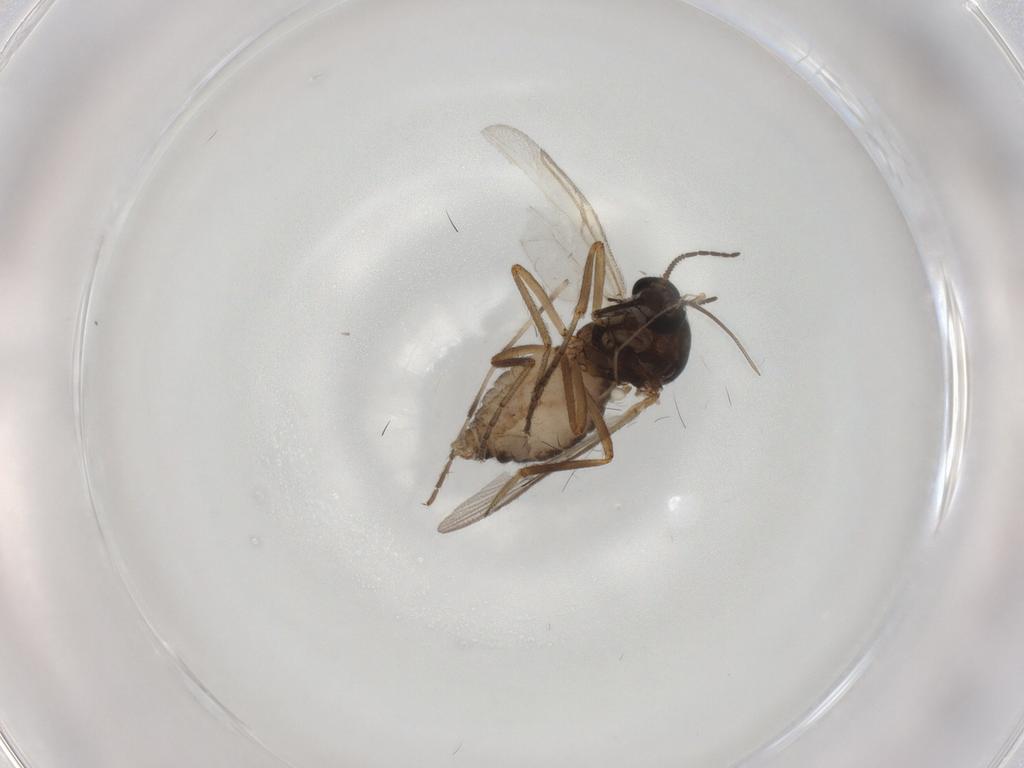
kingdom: Animalia
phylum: Arthropoda
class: Insecta
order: Diptera
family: Ceratopogonidae
